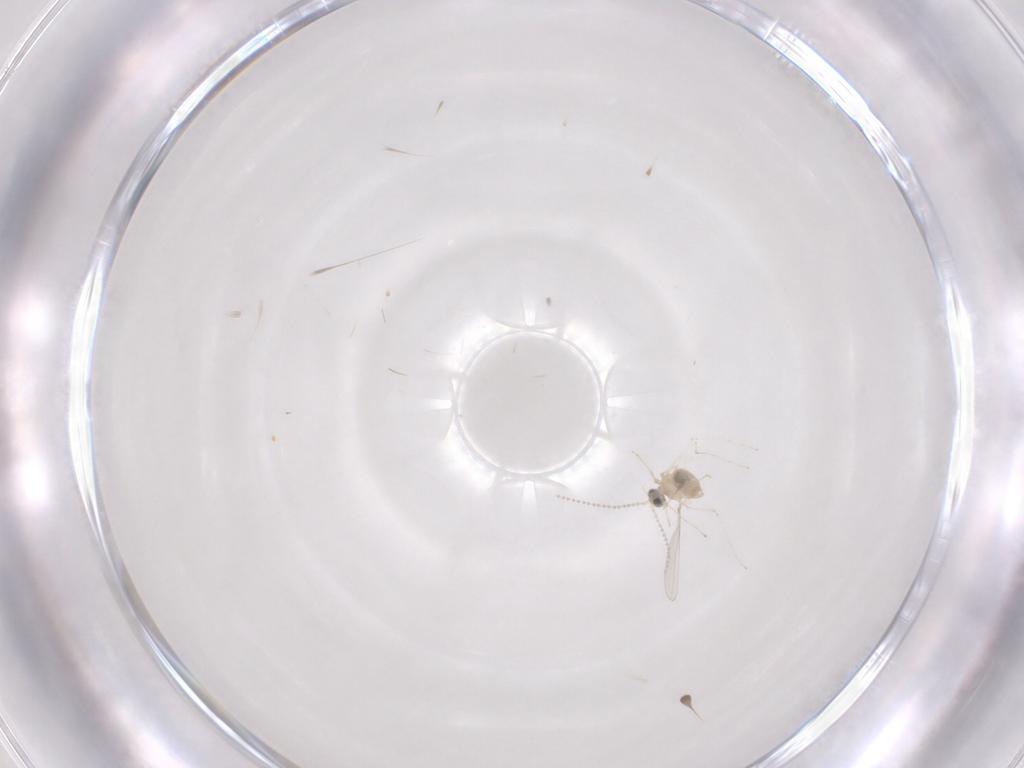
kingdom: Animalia
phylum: Arthropoda
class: Insecta
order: Diptera
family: Cecidomyiidae
